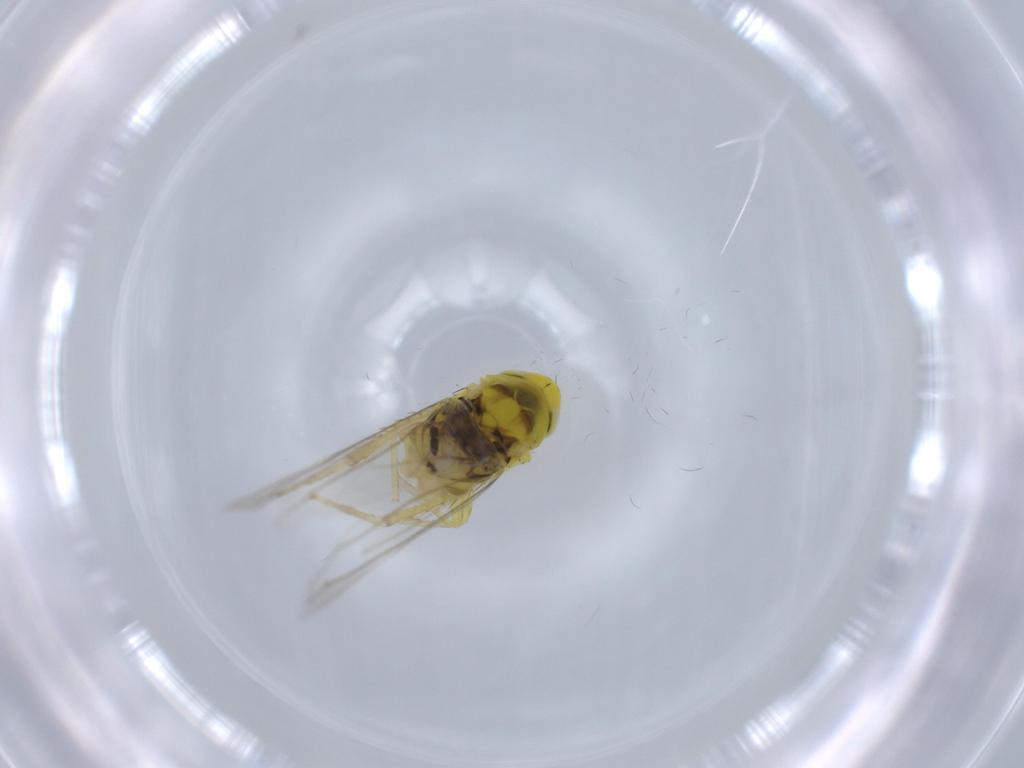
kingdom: Animalia
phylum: Arthropoda
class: Insecta
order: Hemiptera
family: Cicadellidae
